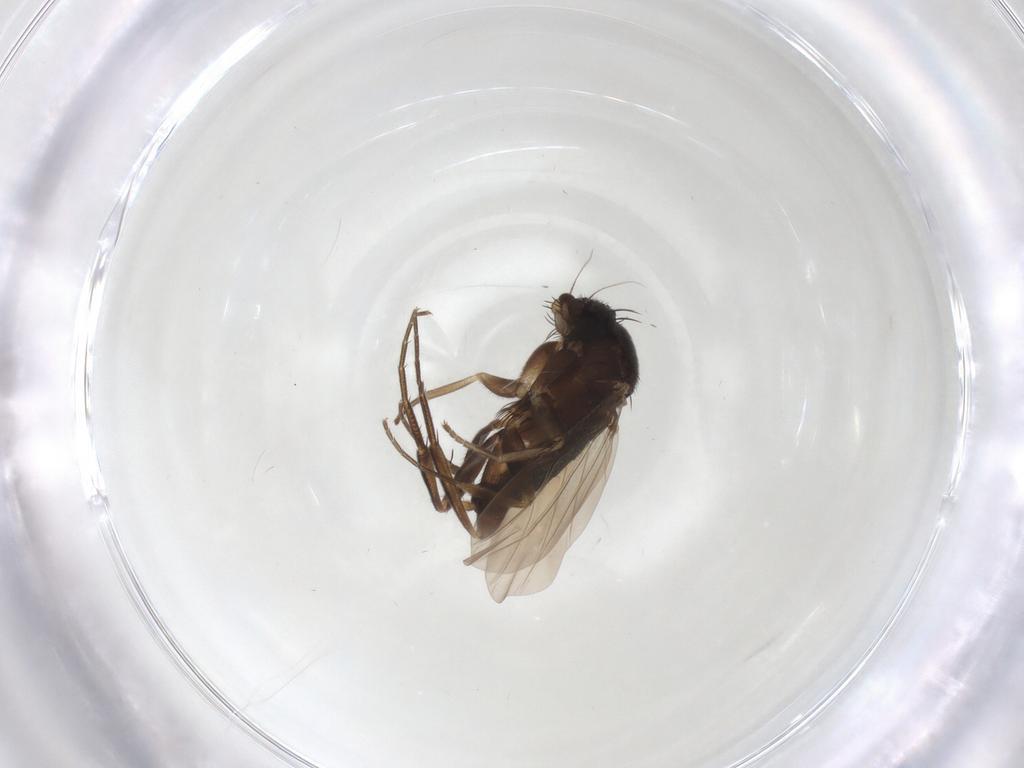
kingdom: Animalia
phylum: Arthropoda
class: Insecta
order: Diptera
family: Phoridae
